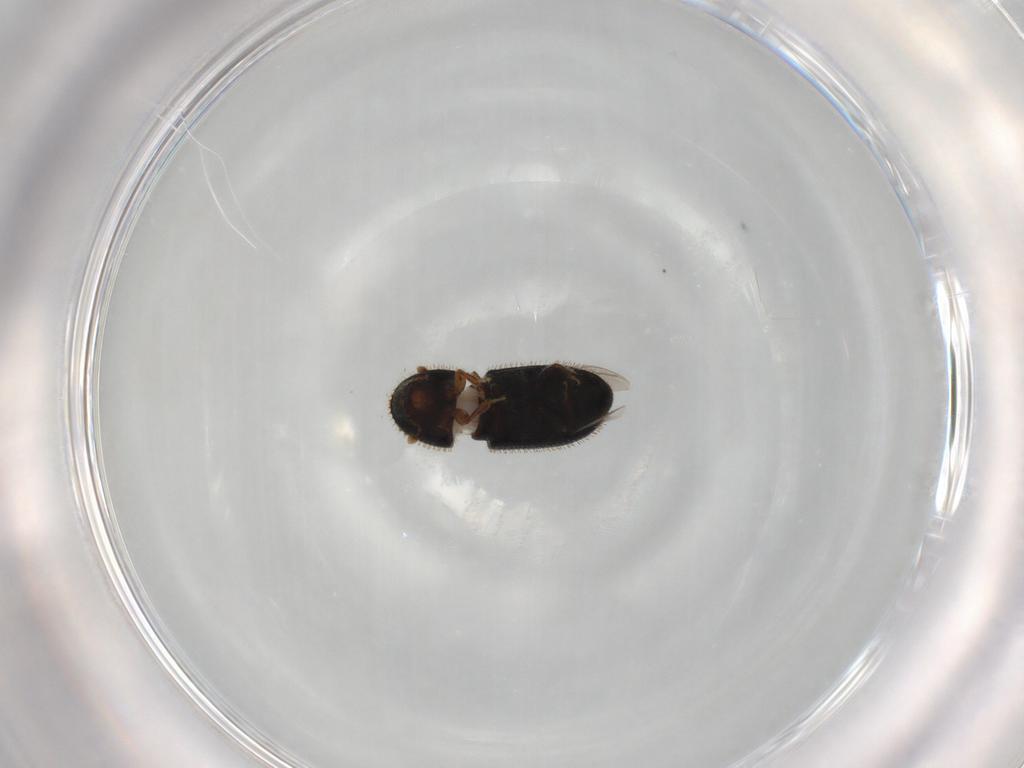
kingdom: Animalia
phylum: Arthropoda
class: Insecta
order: Coleoptera
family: Curculionidae
